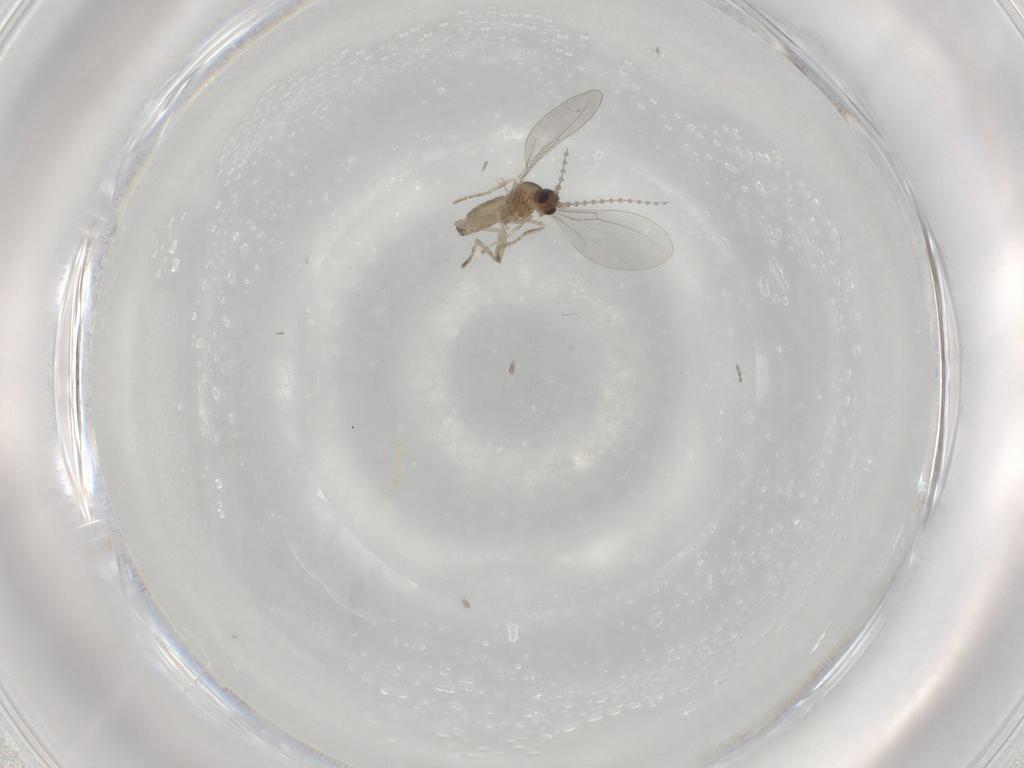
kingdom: Animalia
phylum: Arthropoda
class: Insecta
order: Diptera
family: Cecidomyiidae
